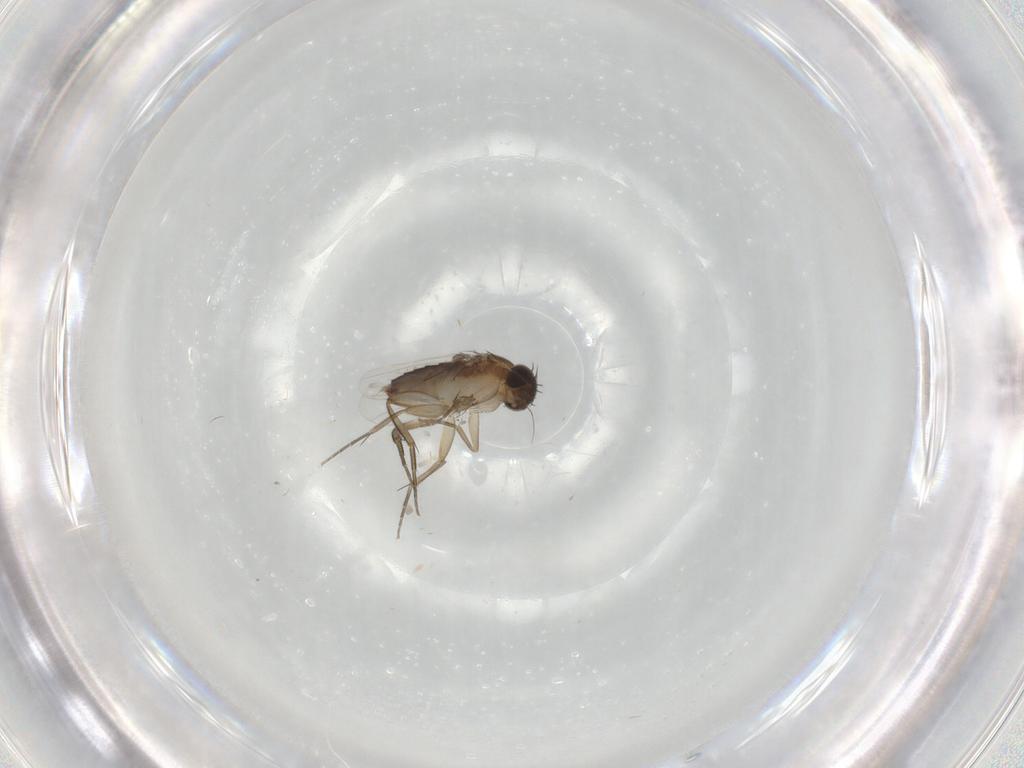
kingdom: Animalia
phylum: Arthropoda
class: Insecta
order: Diptera
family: Phoridae
